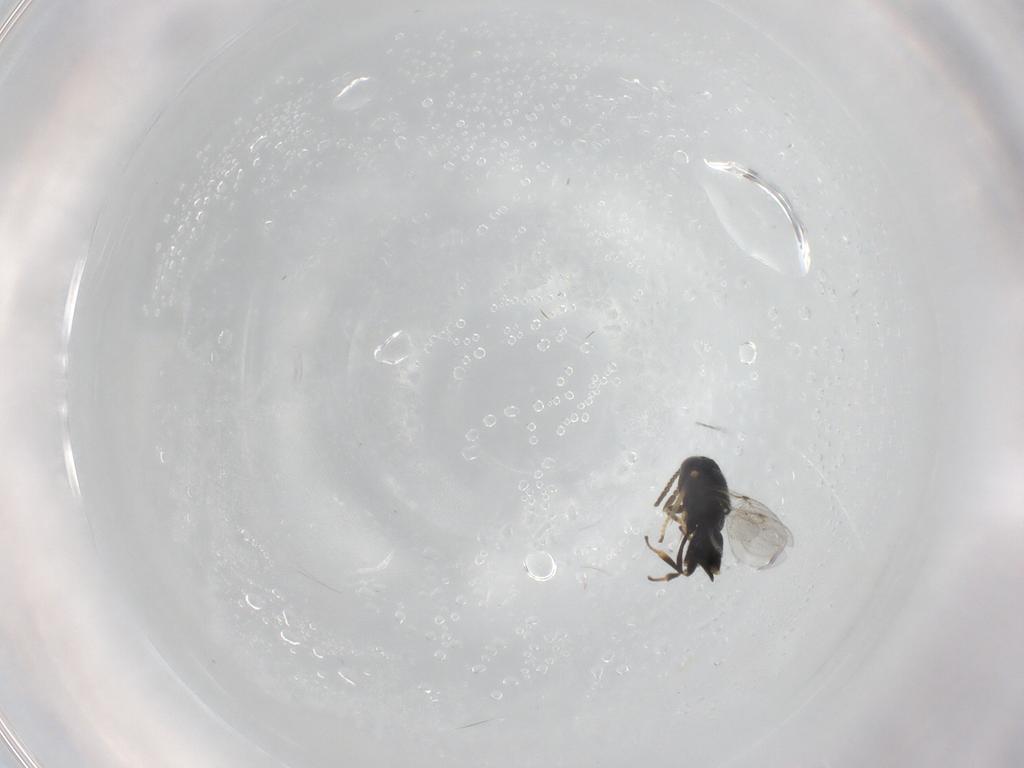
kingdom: Animalia
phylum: Arthropoda
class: Insecta
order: Hymenoptera
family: Encyrtidae
